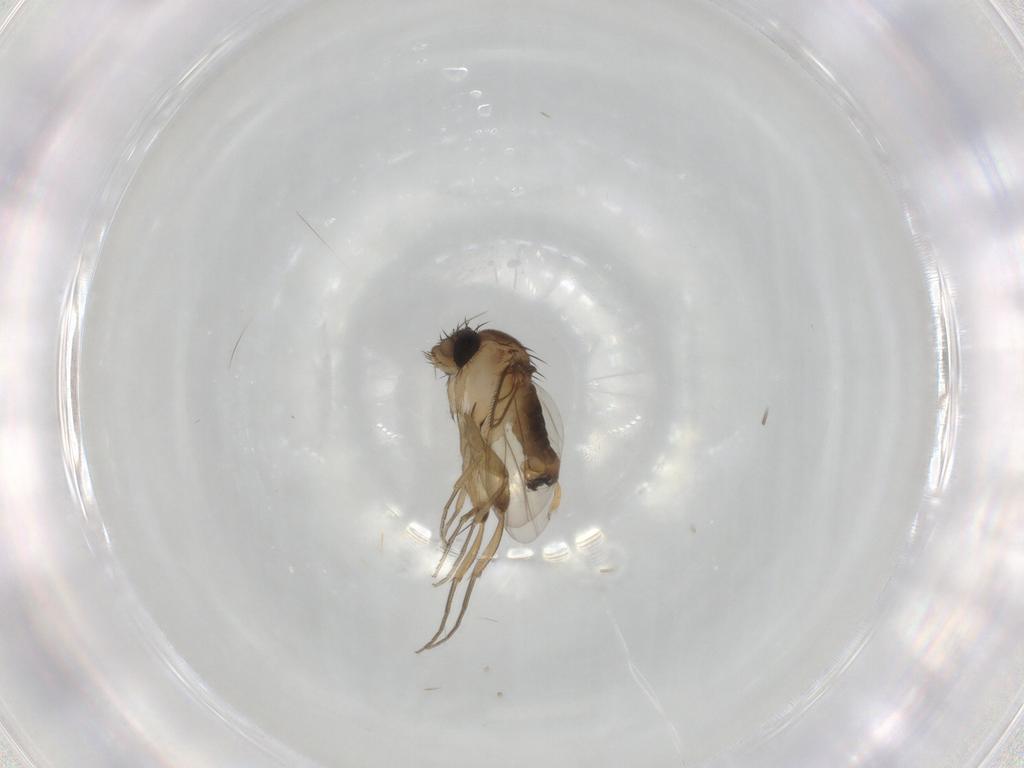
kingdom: Animalia
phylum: Arthropoda
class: Insecta
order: Diptera
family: Phoridae
